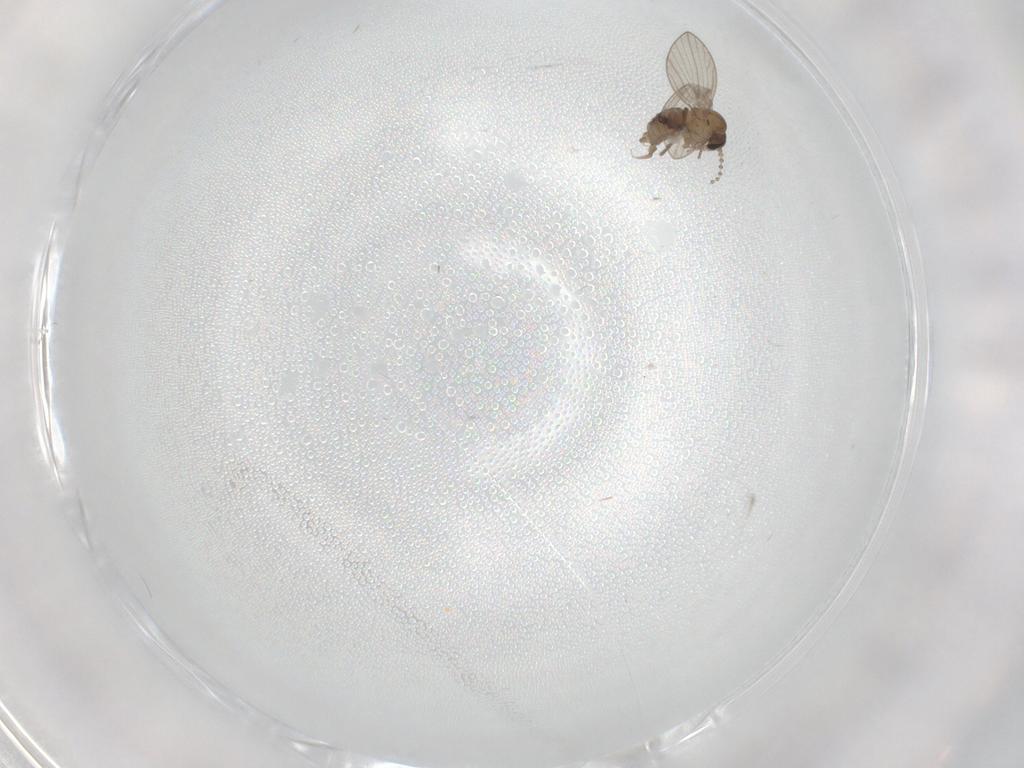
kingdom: Animalia
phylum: Arthropoda
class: Insecta
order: Diptera
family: Psychodidae
